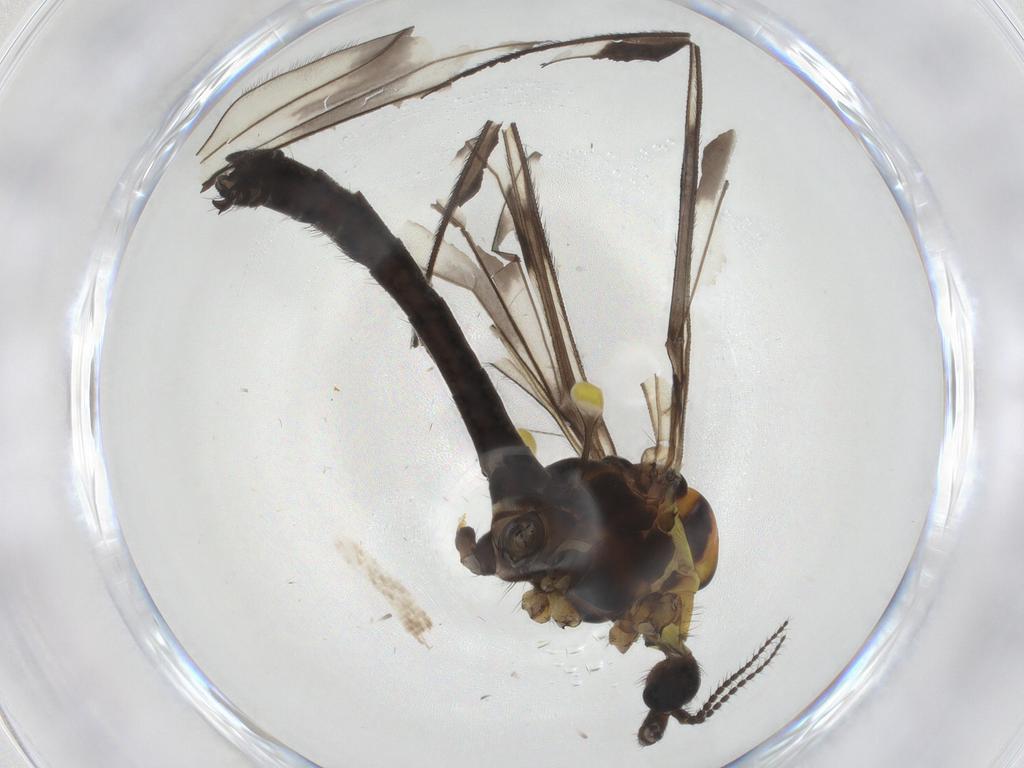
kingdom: Animalia
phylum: Arthropoda
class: Insecta
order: Diptera
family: Limoniidae
